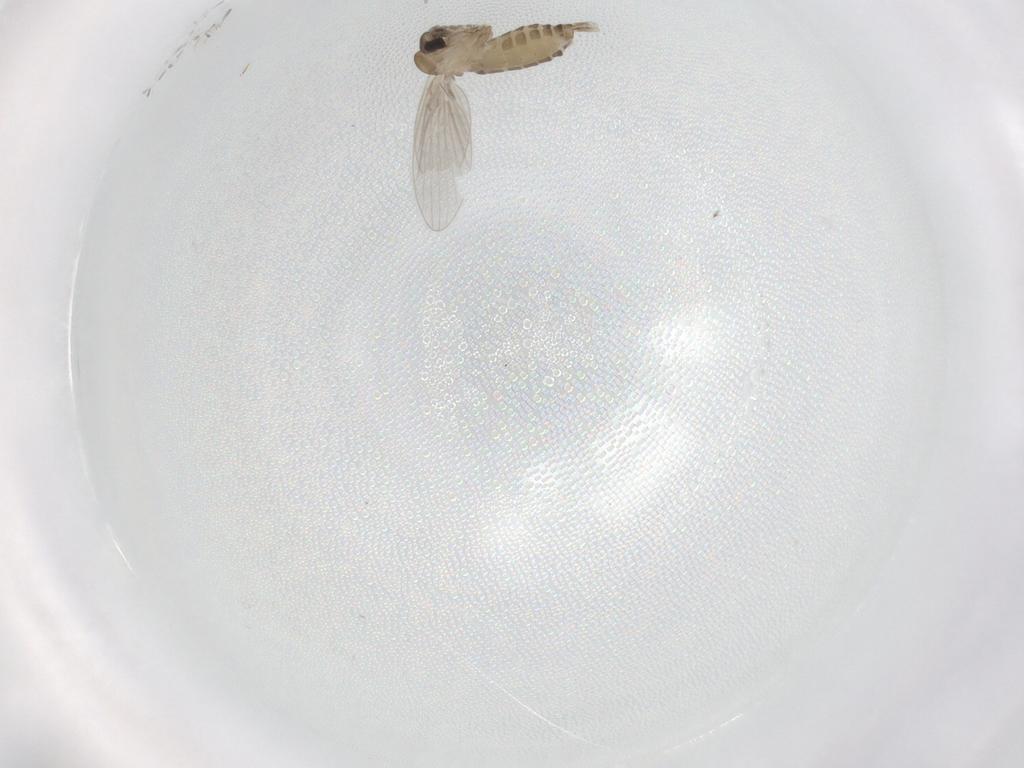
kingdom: Animalia
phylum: Arthropoda
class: Insecta
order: Diptera
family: Psychodidae
